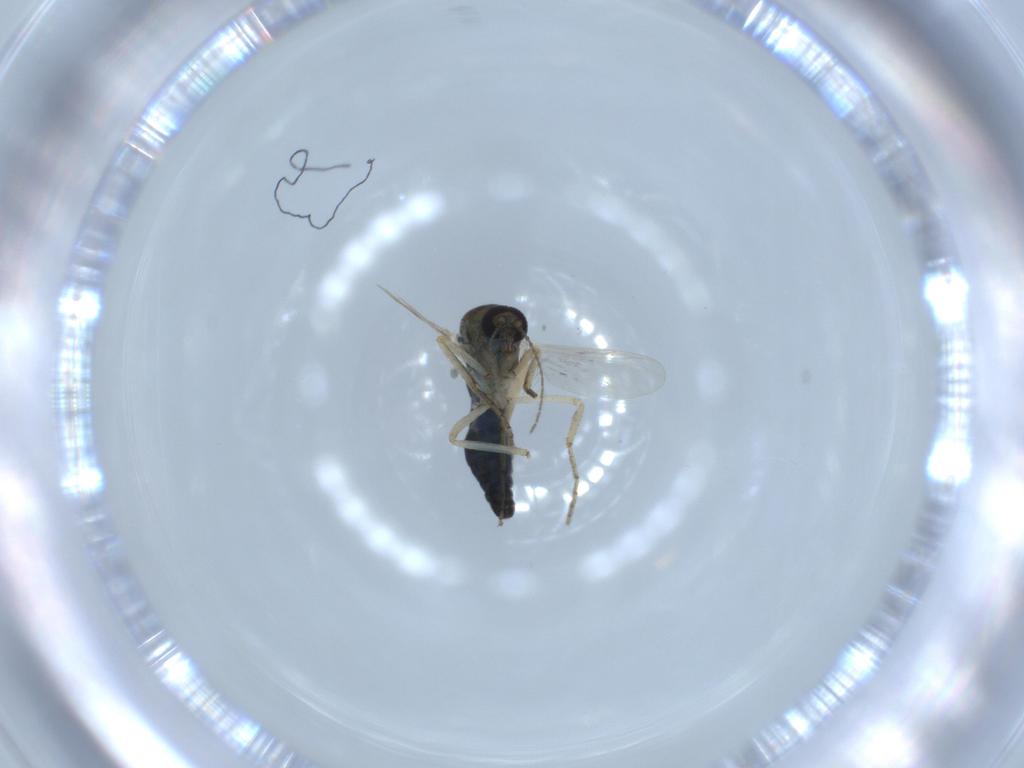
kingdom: Animalia
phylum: Arthropoda
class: Insecta
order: Diptera
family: Ceratopogonidae
